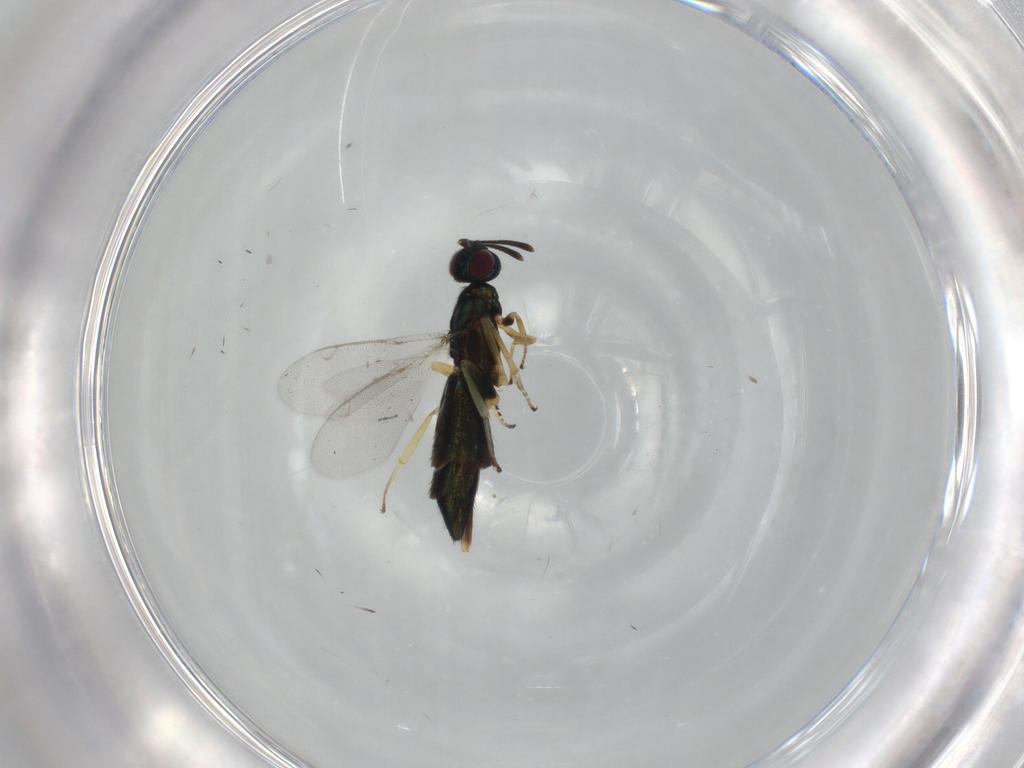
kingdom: Animalia
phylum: Arthropoda
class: Insecta
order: Hymenoptera
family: Eupelmidae
